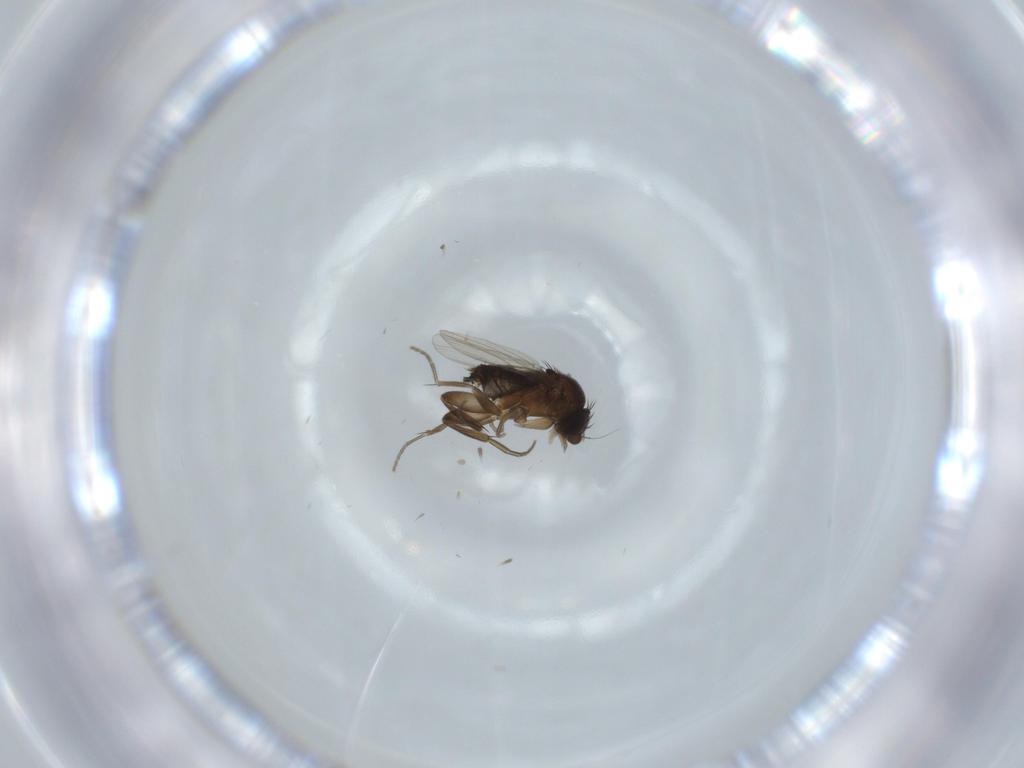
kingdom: Animalia
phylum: Arthropoda
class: Insecta
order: Diptera
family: Phoridae
